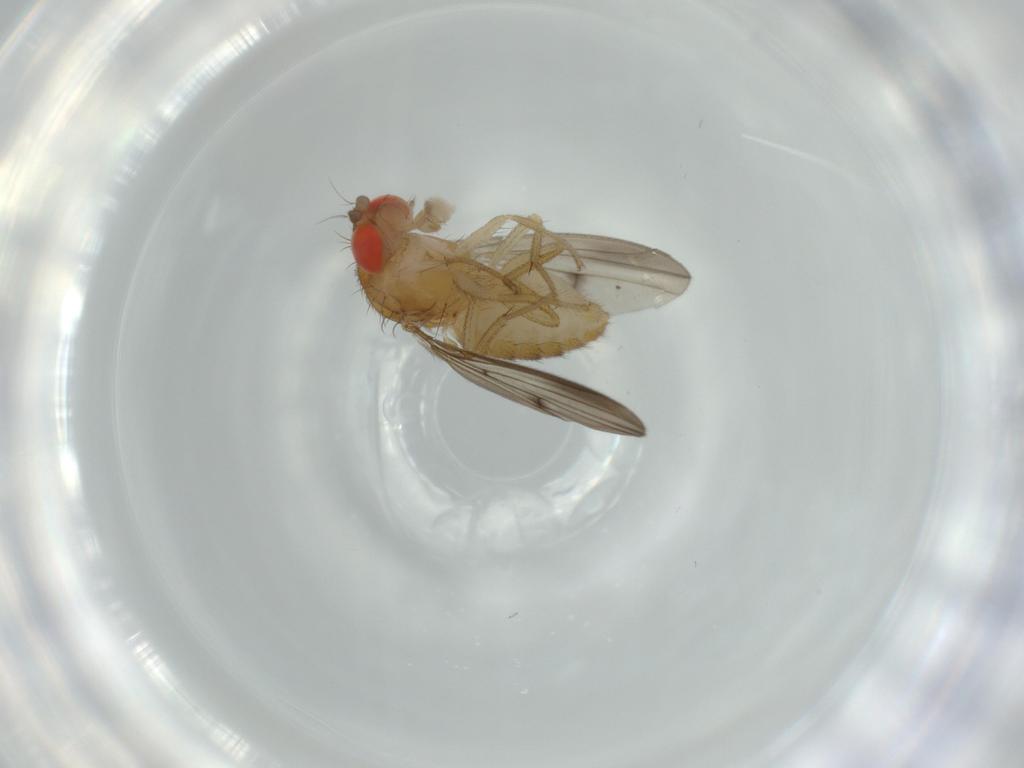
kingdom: Animalia
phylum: Arthropoda
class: Insecta
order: Diptera
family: Drosophilidae
